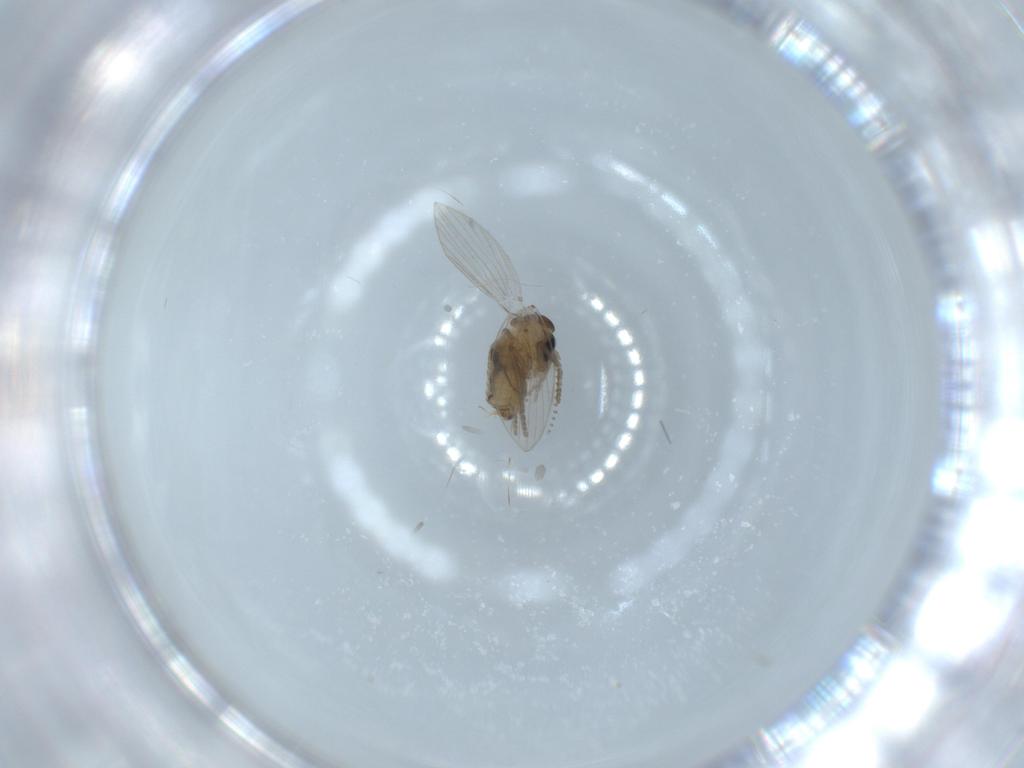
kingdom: Animalia
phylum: Arthropoda
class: Insecta
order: Diptera
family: Psychodidae
